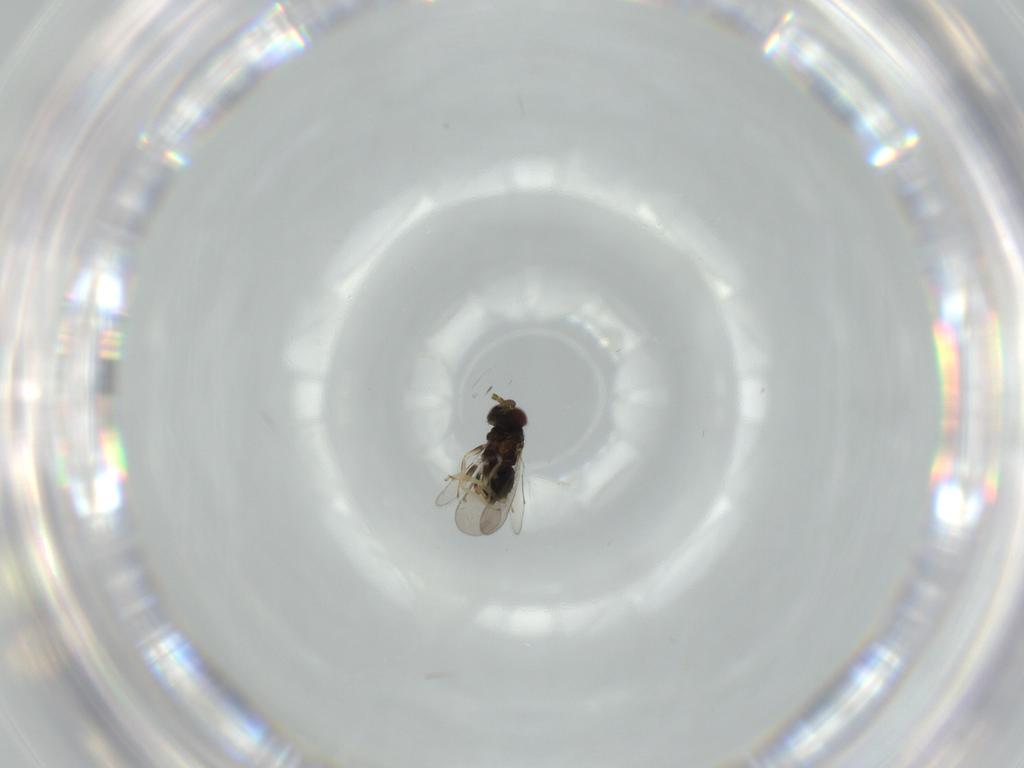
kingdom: Animalia
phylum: Arthropoda
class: Insecta
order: Hymenoptera
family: Aphelinidae
